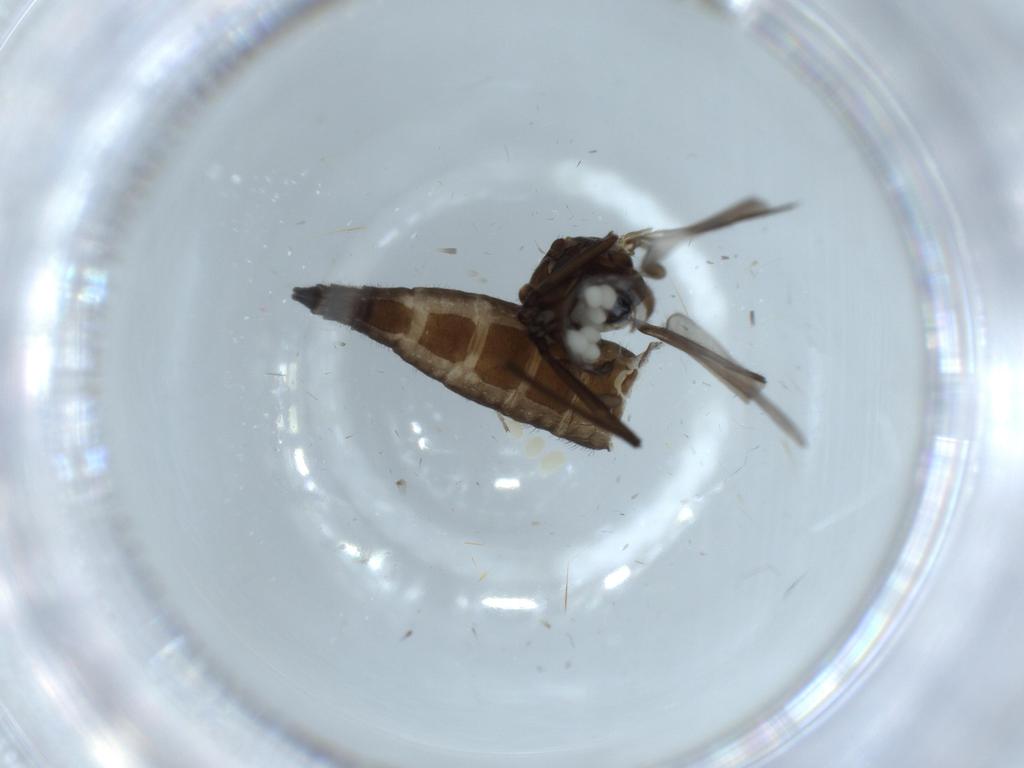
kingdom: Animalia
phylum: Arthropoda
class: Insecta
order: Diptera
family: Sciaridae
